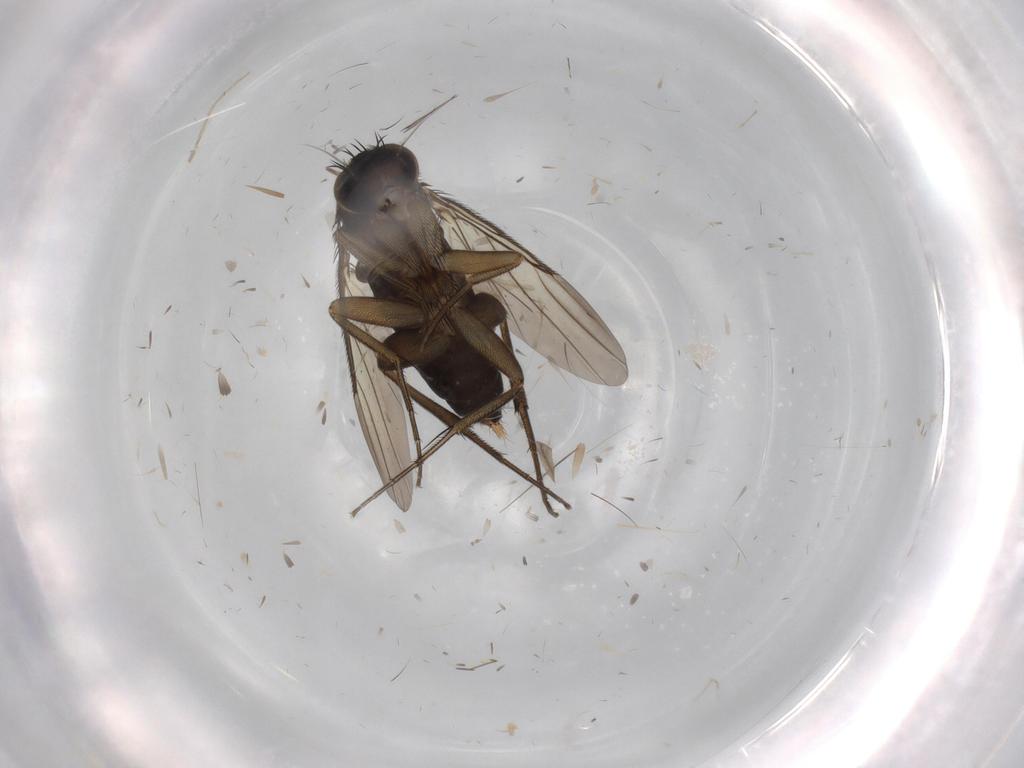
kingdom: Animalia
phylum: Arthropoda
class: Insecta
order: Diptera
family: Phoridae
